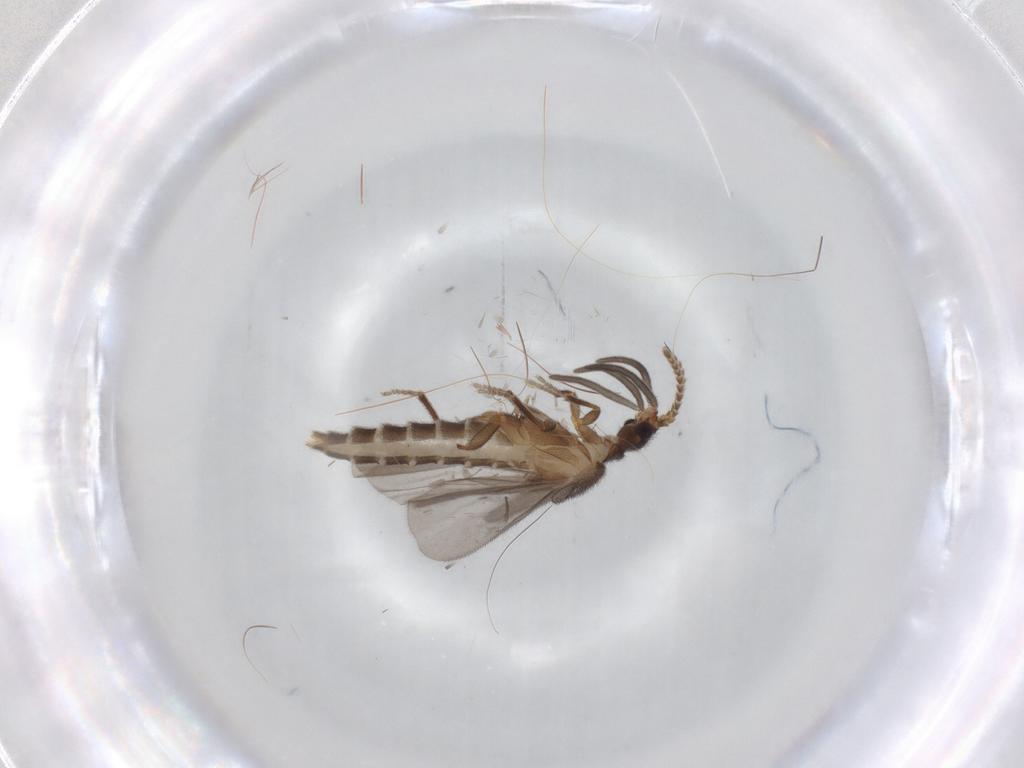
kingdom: Animalia
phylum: Arthropoda
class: Insecta
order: Coleoptera
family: Omethidae
